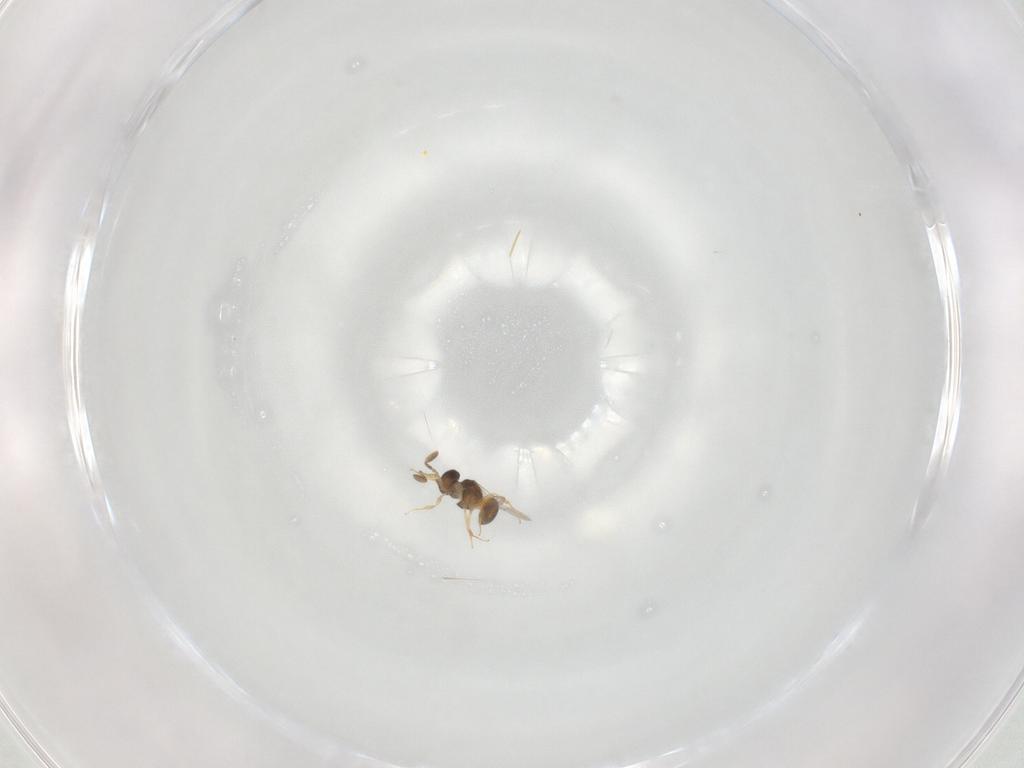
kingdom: Animalia
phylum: Arthropoda
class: Insecta
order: Hymenoptera
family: Scelionidae
